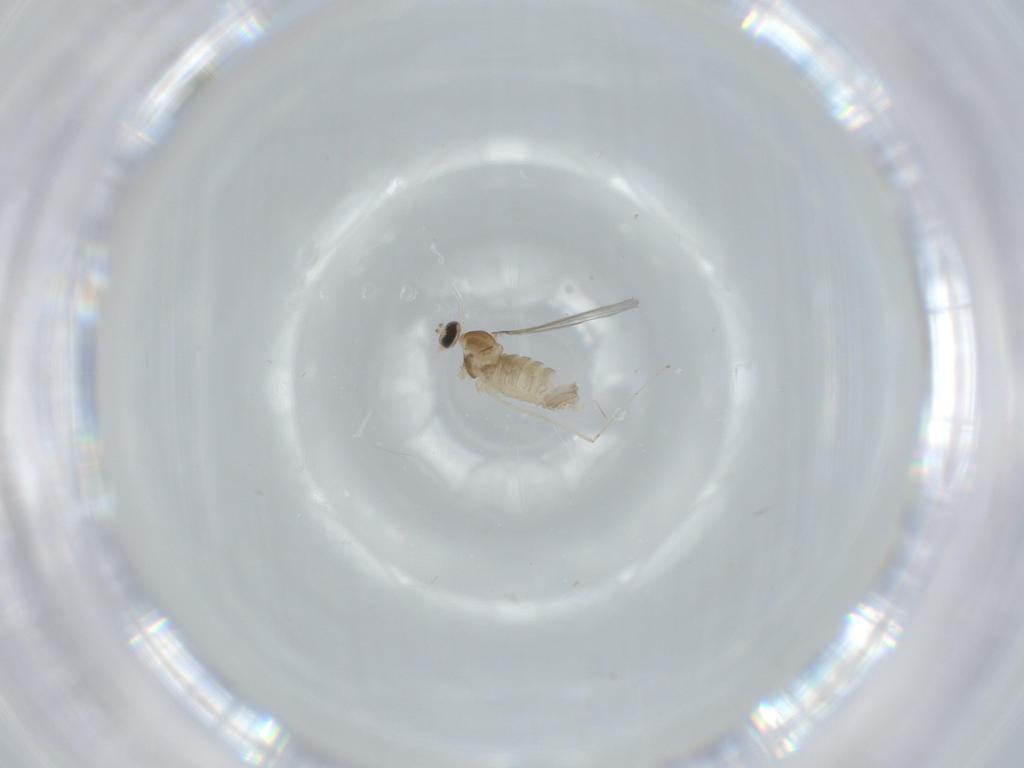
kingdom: Animalia
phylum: Arthropoda
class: Insecta
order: Diptera
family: Cecidomyiidae
